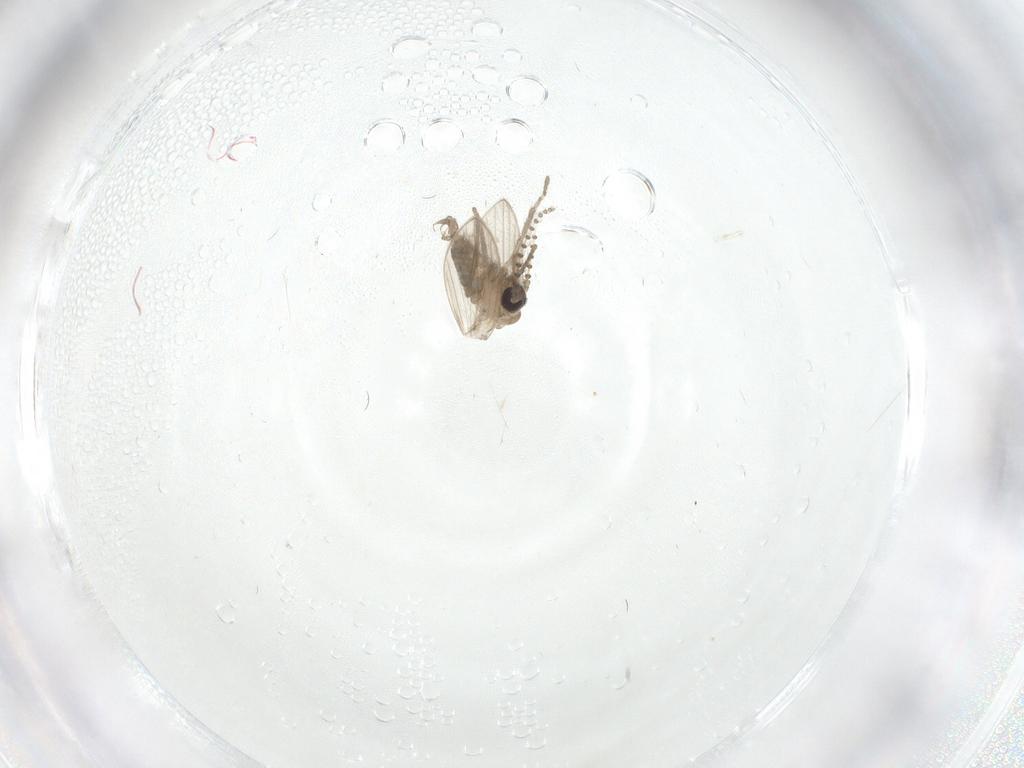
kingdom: Animalia
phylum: Arthropoda
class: Insecta
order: Diptera
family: Psychodidae
